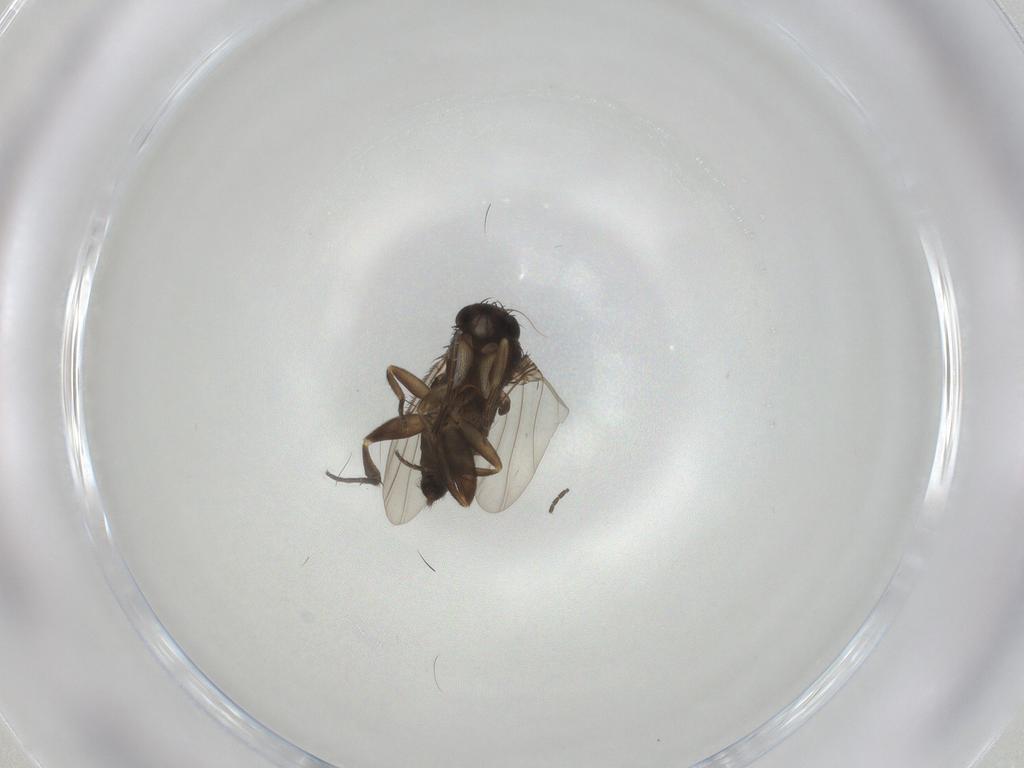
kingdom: Animalia
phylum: Arthropoda
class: Insecta
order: Diptera
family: Phoridae
